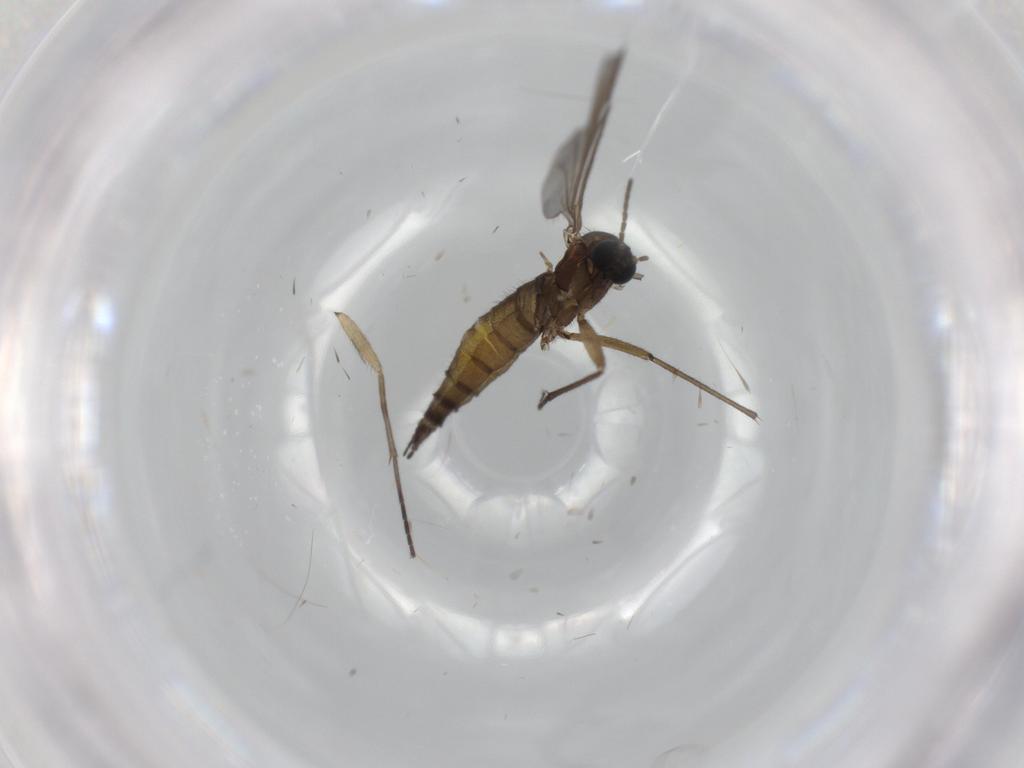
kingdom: Animalia
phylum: Arthropoda
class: Insecta
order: Diptera
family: Sciaridae
